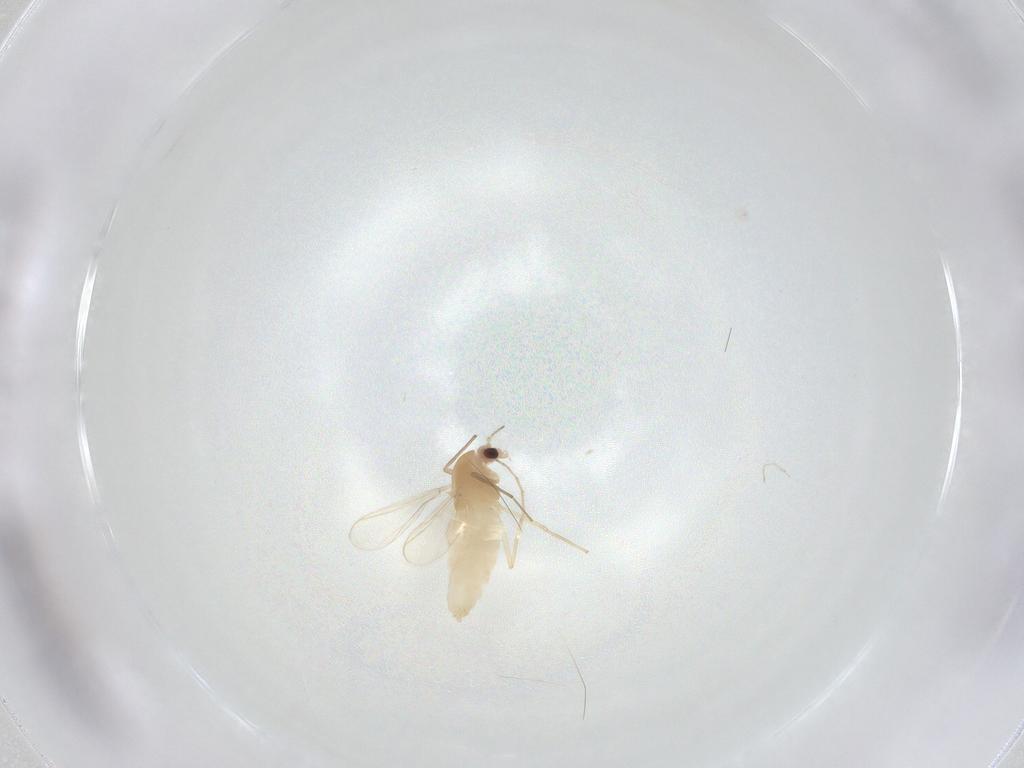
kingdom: Animalia
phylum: Arthropoda
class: Insecta
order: Diptera
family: Chironomidae
